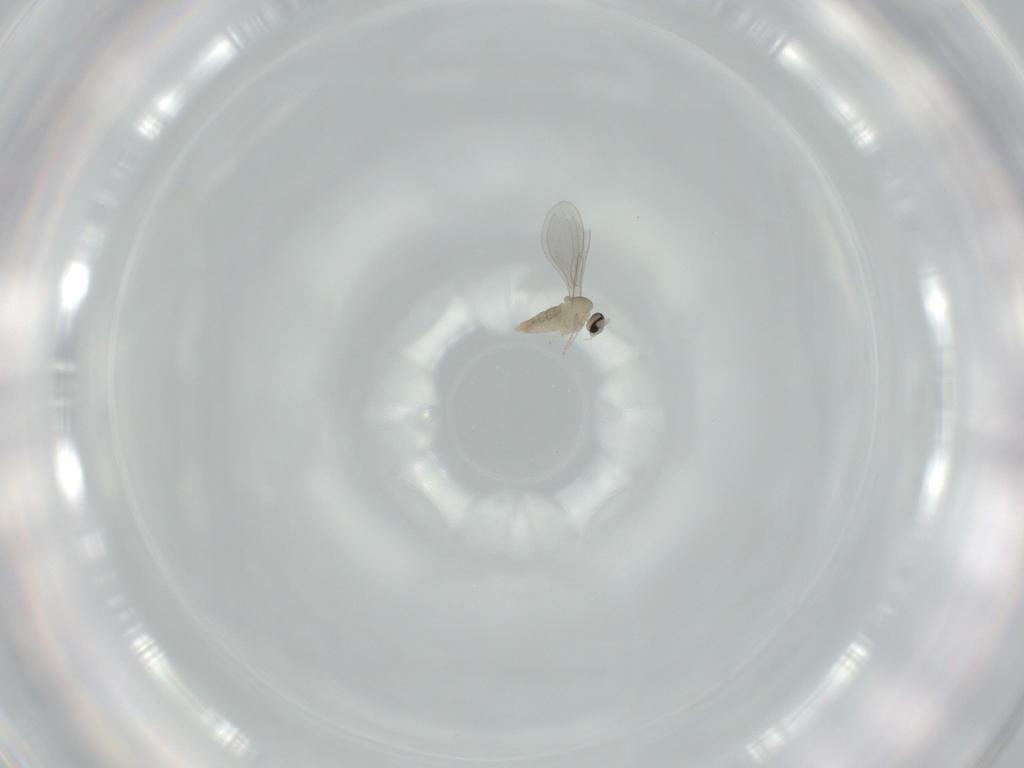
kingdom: Animalia
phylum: Arthropoda
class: Insecta
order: Diptera
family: Cecidomyiidae
